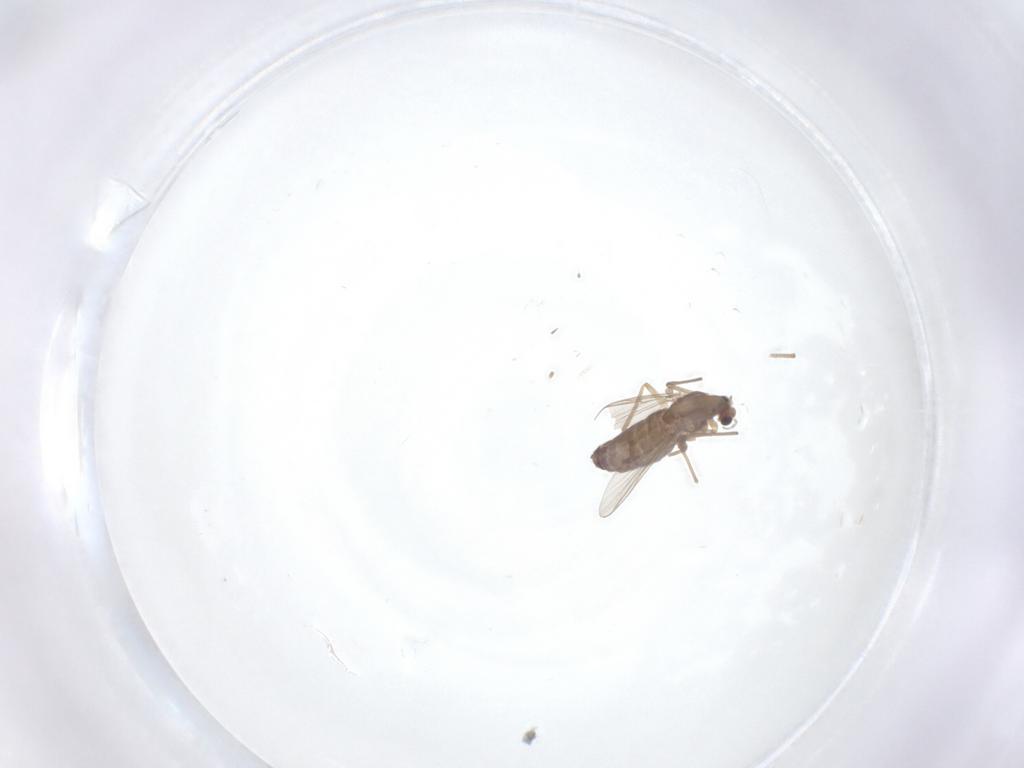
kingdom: Animalia
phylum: Arthropoda
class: Insecta
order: Diptera
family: Chironomidae
